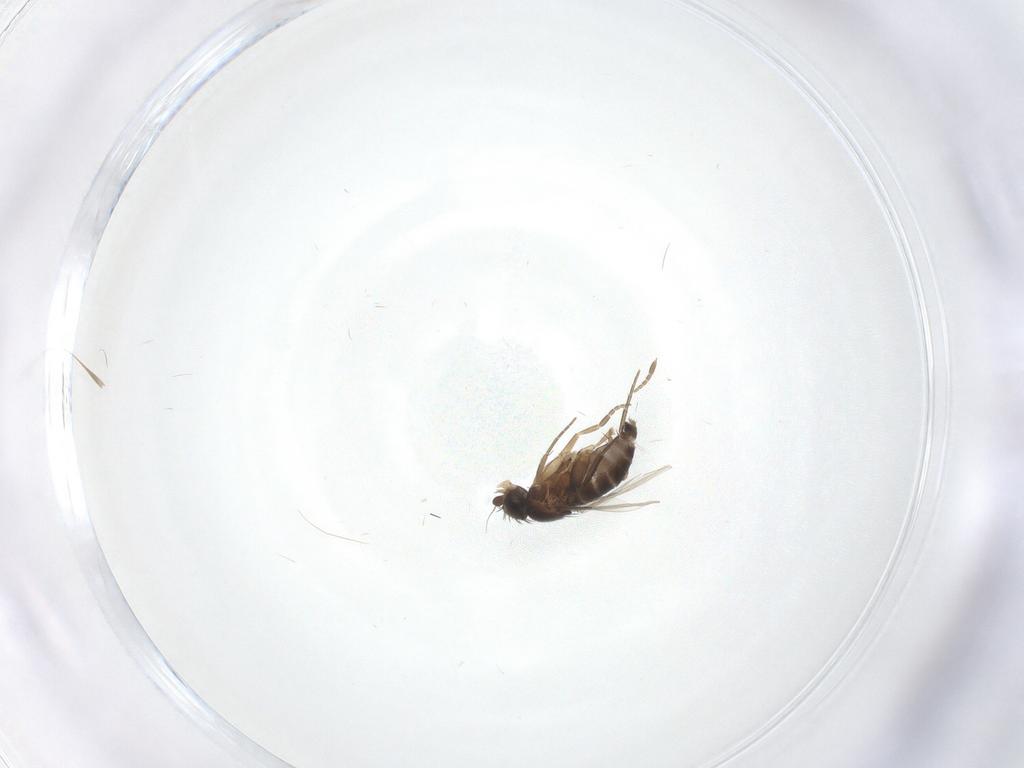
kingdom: Animalia
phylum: Arthropoda
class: Insecta
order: Diptera
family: Phoridae
